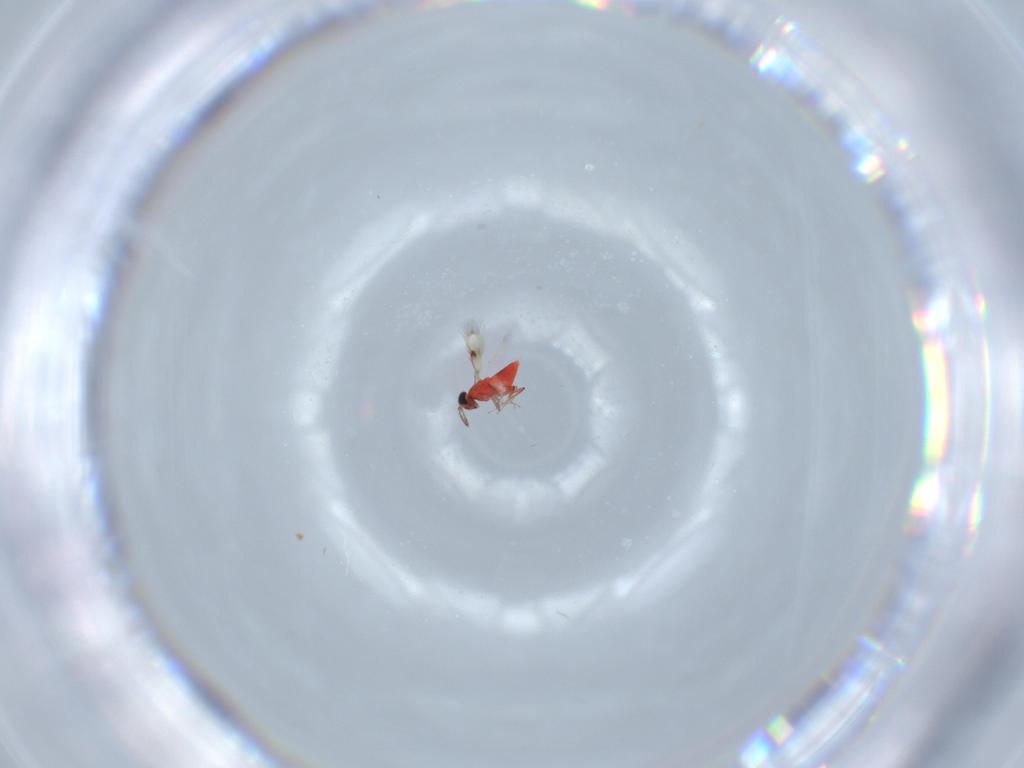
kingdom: Animalia
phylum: Arthropoda
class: Insecta
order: Hymenoptera
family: Trichogrammatidae
